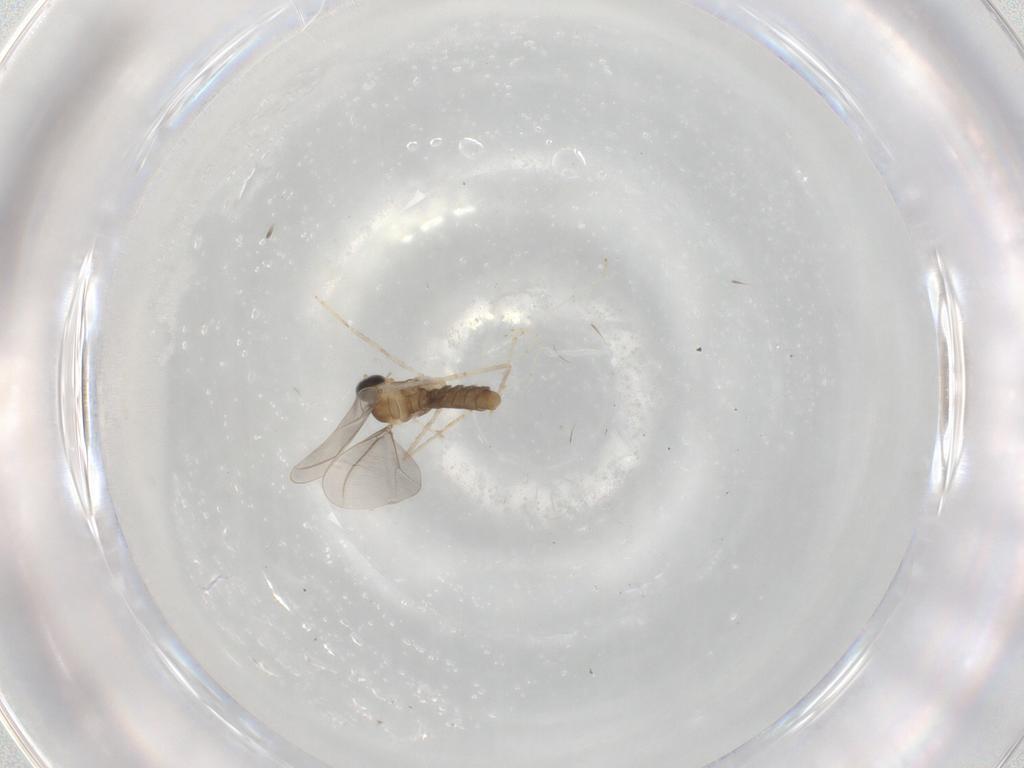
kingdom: Animalia
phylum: Arthropoda
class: Insecta
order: Diptera
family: Cecidomyiidae
